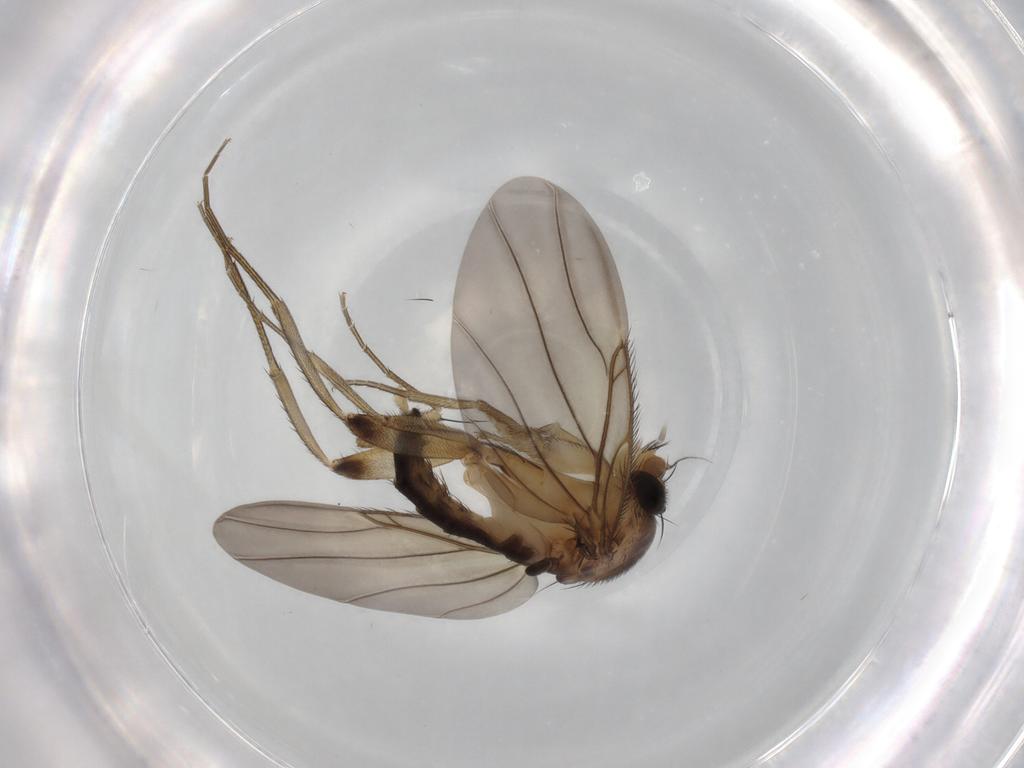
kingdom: Animalia
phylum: Arthropoda
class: Insecta
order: Diptera
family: Phoridae
